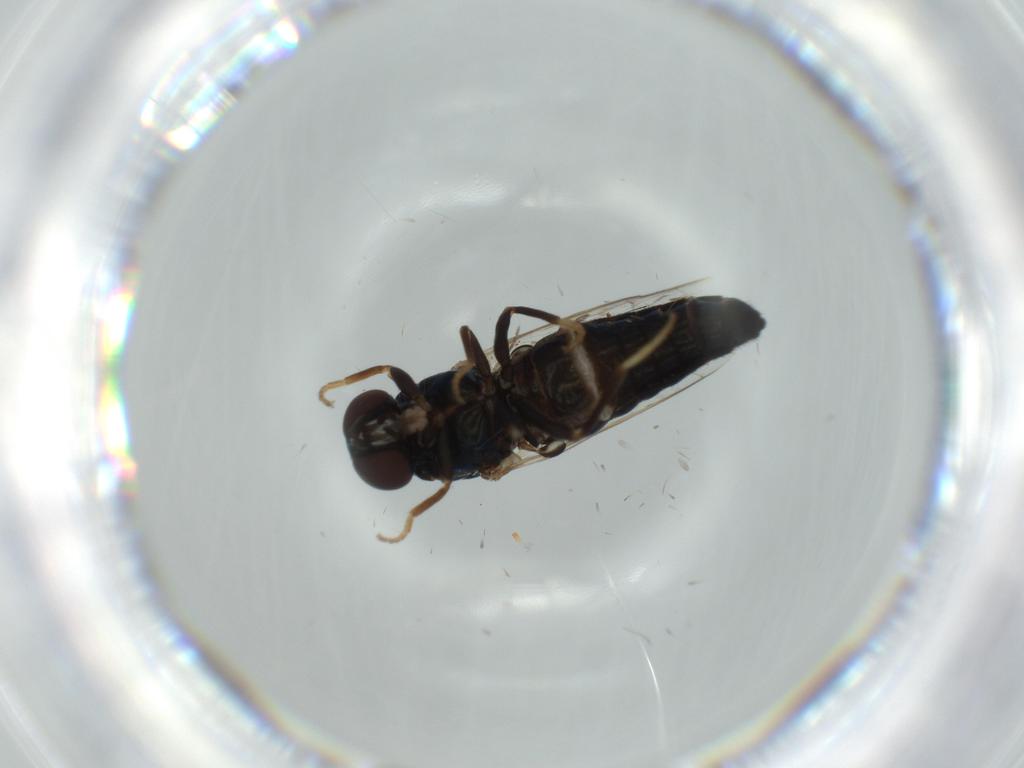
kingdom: Animalia
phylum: Arthropoda
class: Insecta
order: Diptera
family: Scenopinidae
